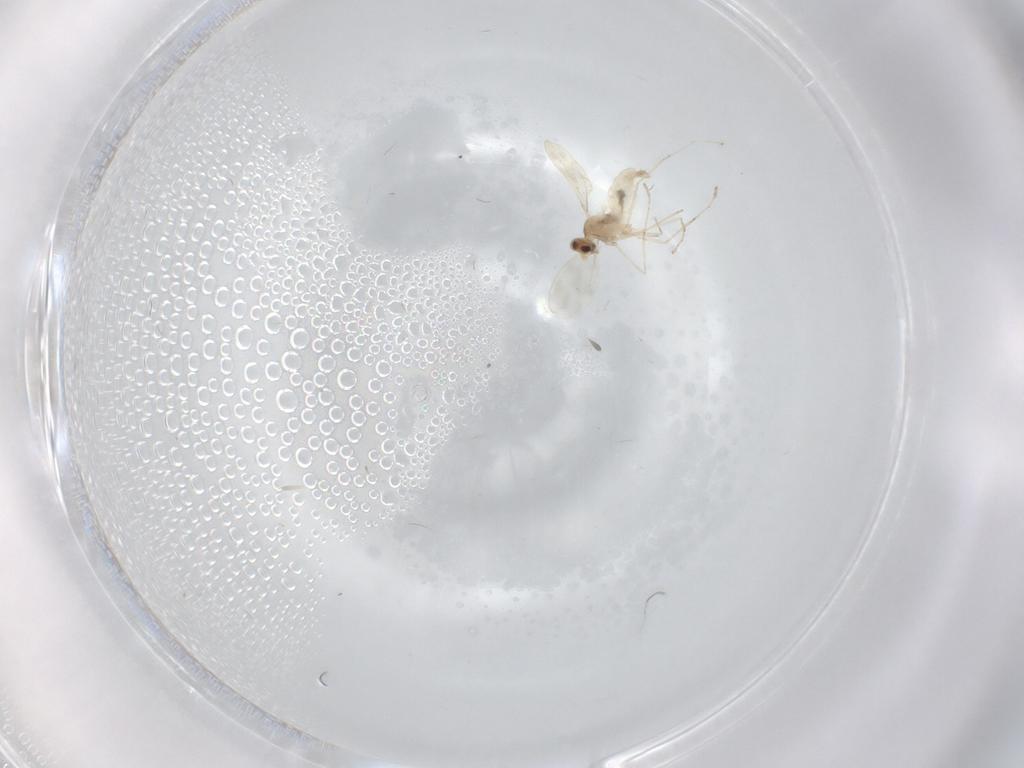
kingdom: Animalia
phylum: Arthropoda
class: Insecta
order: Diptera
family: Cecidomyiidae
